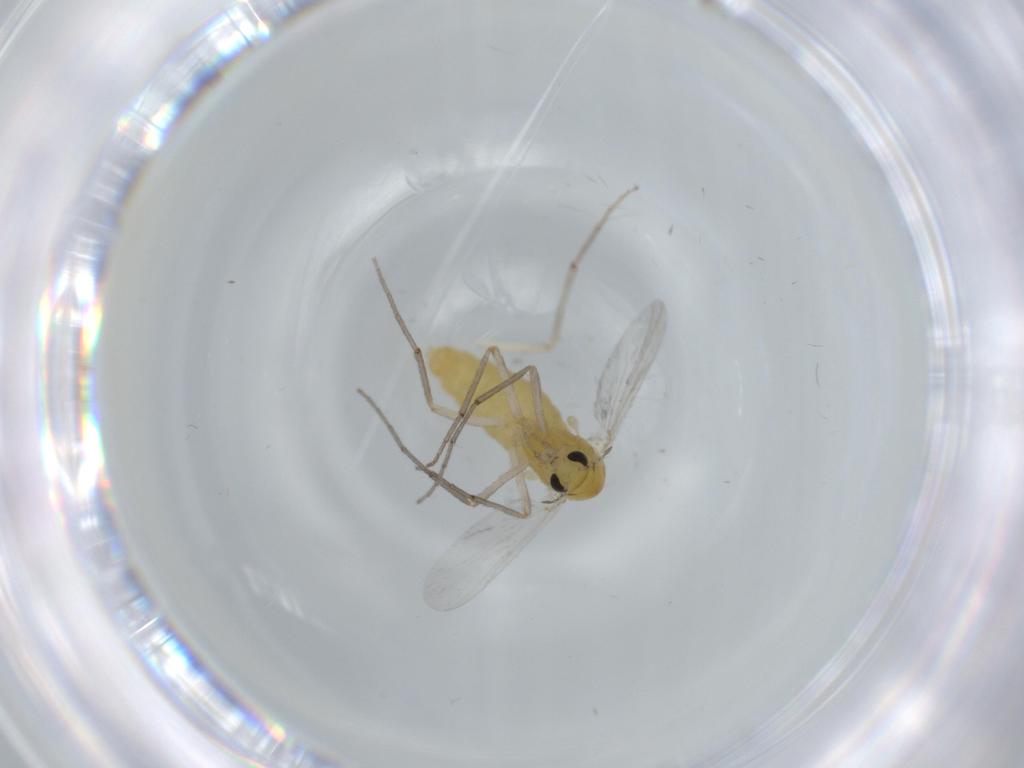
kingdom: Animalia
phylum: Arthropoda
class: Insecta
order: Diptera
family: Chironomidae
